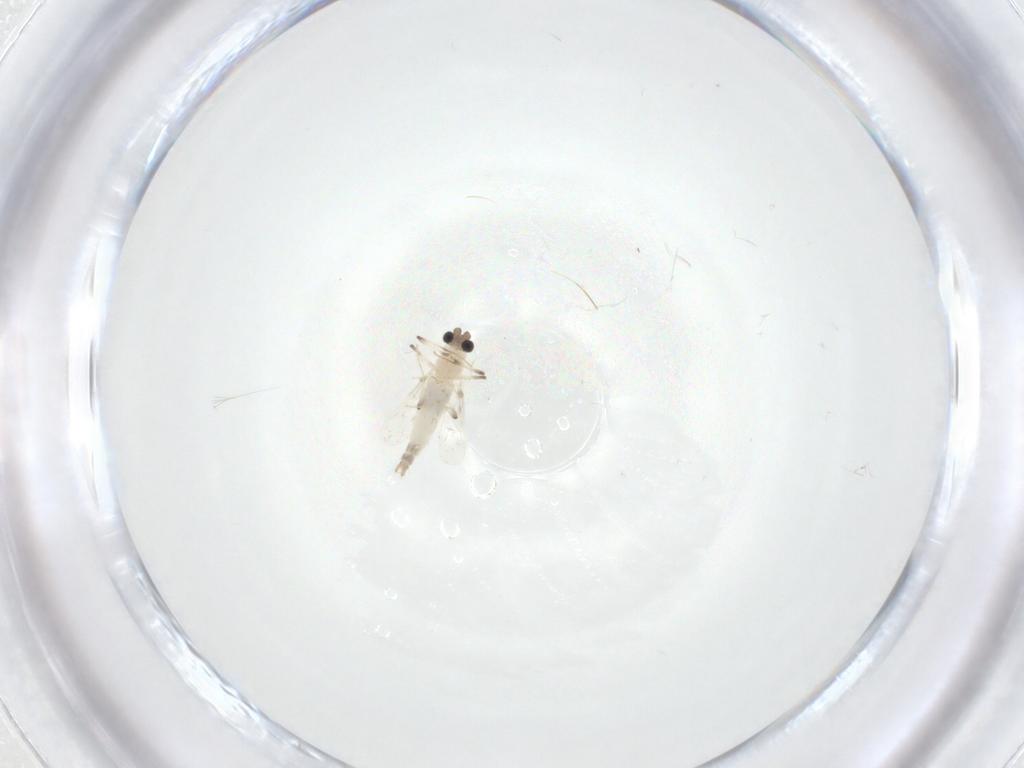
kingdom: Animalia
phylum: Arthropoda
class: Insecta
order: Diptera
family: Chironomidae
